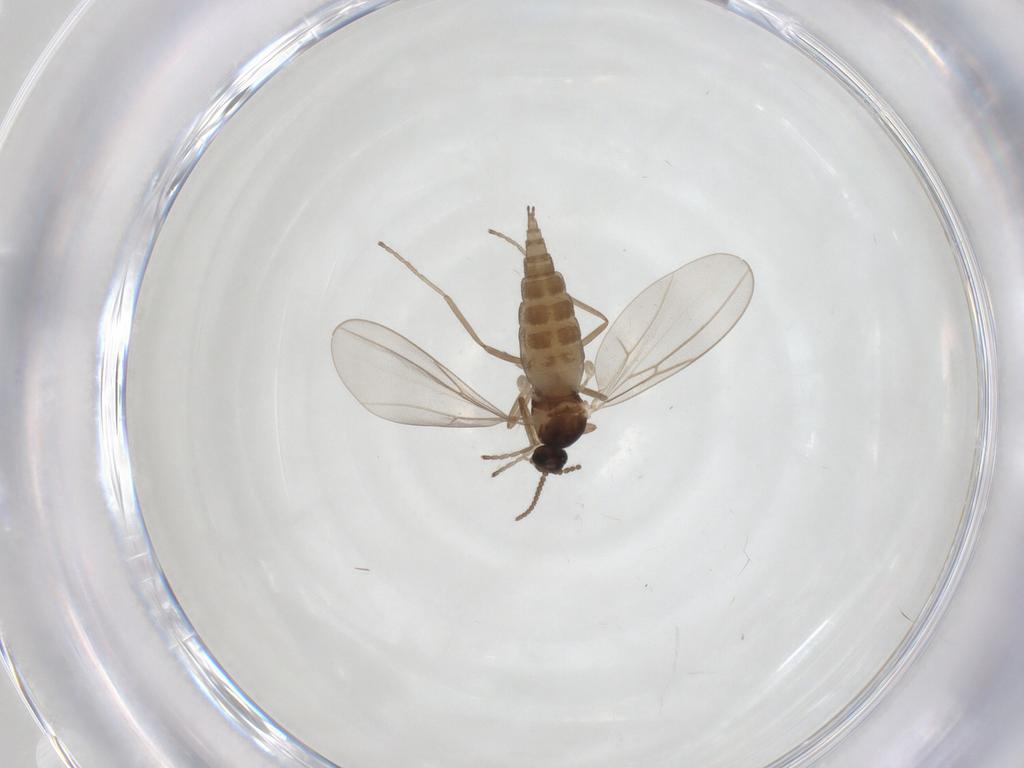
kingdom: Animalia
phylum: Arthropoda
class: Insecta
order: Diptera
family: Cecidomyiidae
